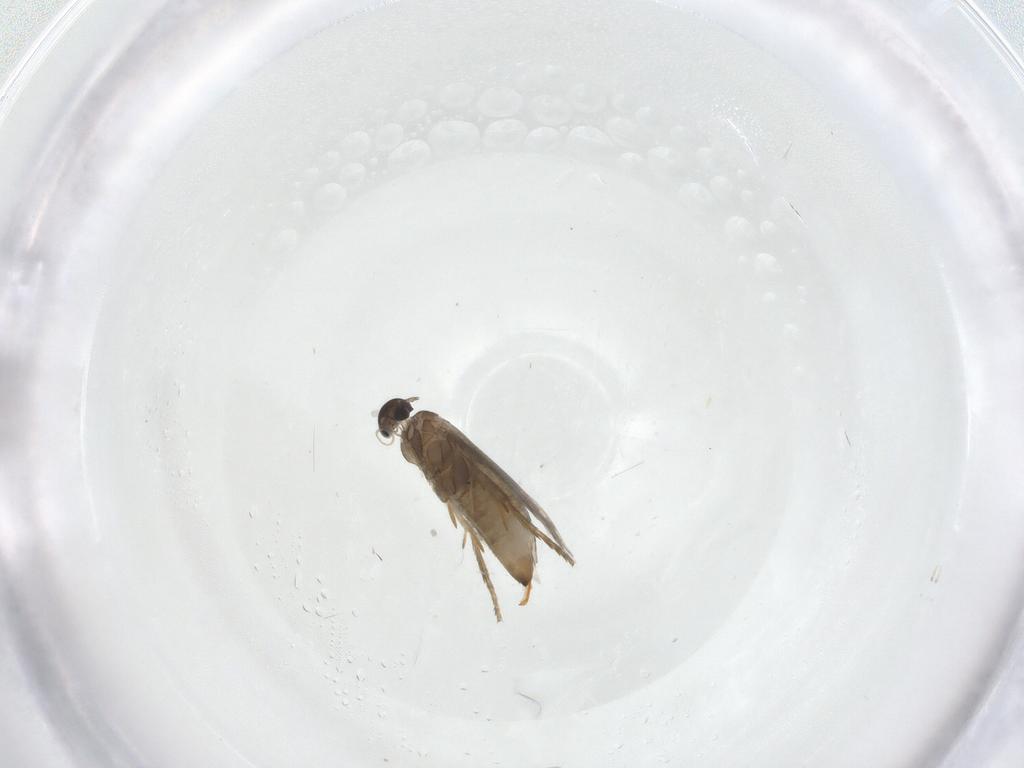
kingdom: Animalia
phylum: Arthropoda
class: Insecta
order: Lepidoptera
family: Heliozelidae
